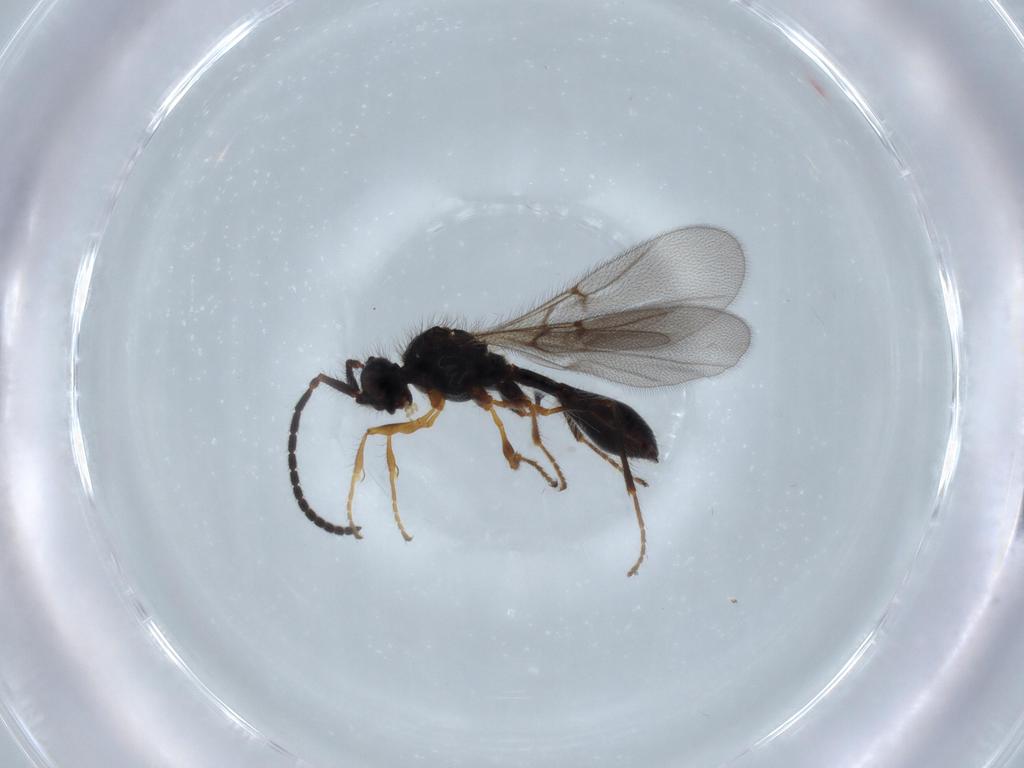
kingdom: Animalia
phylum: Arthropoda
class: Insecta
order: Hymenoptera
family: Diapriidae
